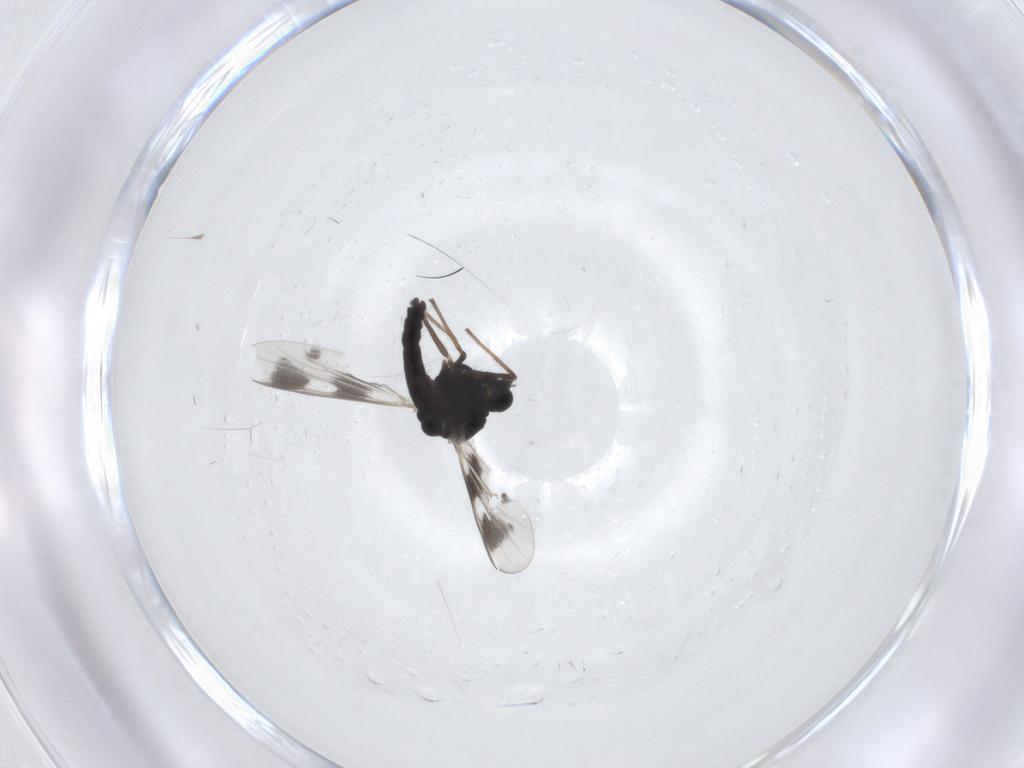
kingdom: Animalia
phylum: Arthropoda
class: Insecta
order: Diptera
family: Chironomidae
